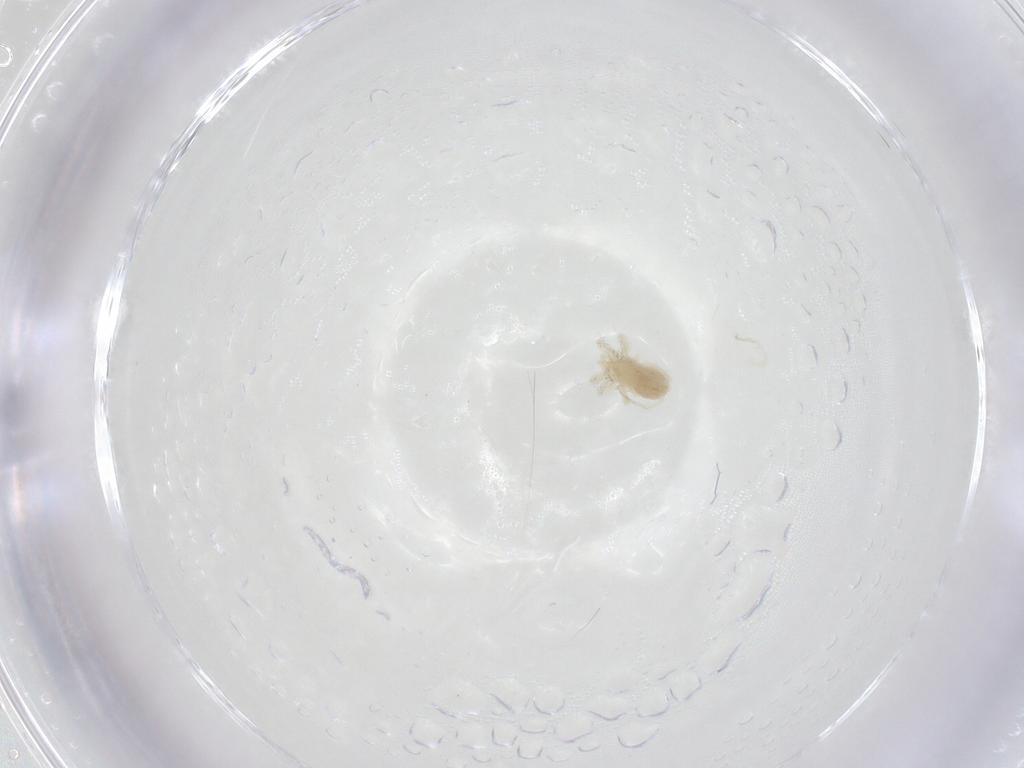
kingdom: Animalia
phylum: Arthropoda
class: Arachnida
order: Trombidiformes
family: Anystidae
